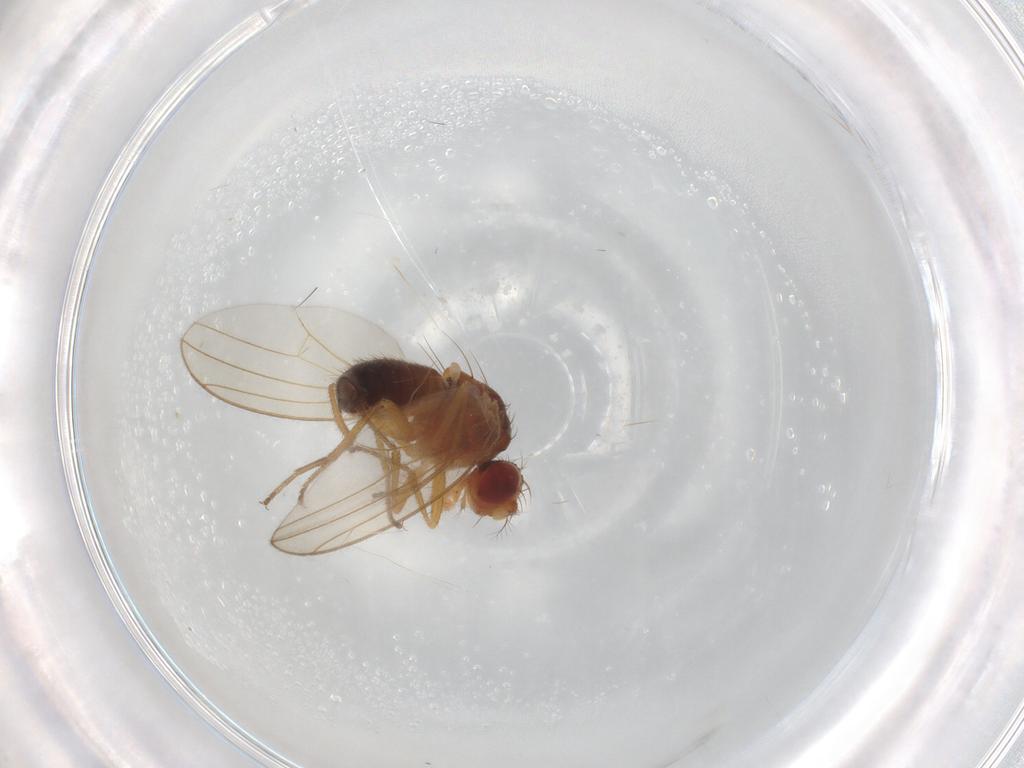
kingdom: Animalia
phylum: Arthropoda
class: Insecta
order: Diptera
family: Drosophilidae
